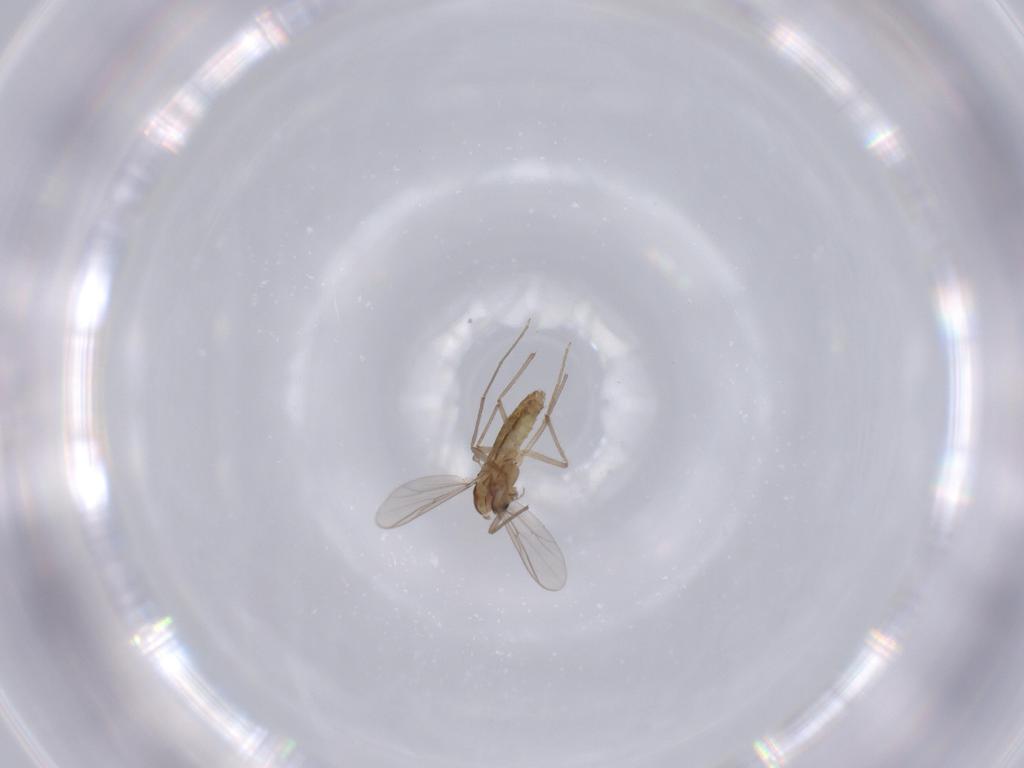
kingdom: Animalia
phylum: Arthropoda
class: Insecta
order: Diptera
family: Chironomidae
